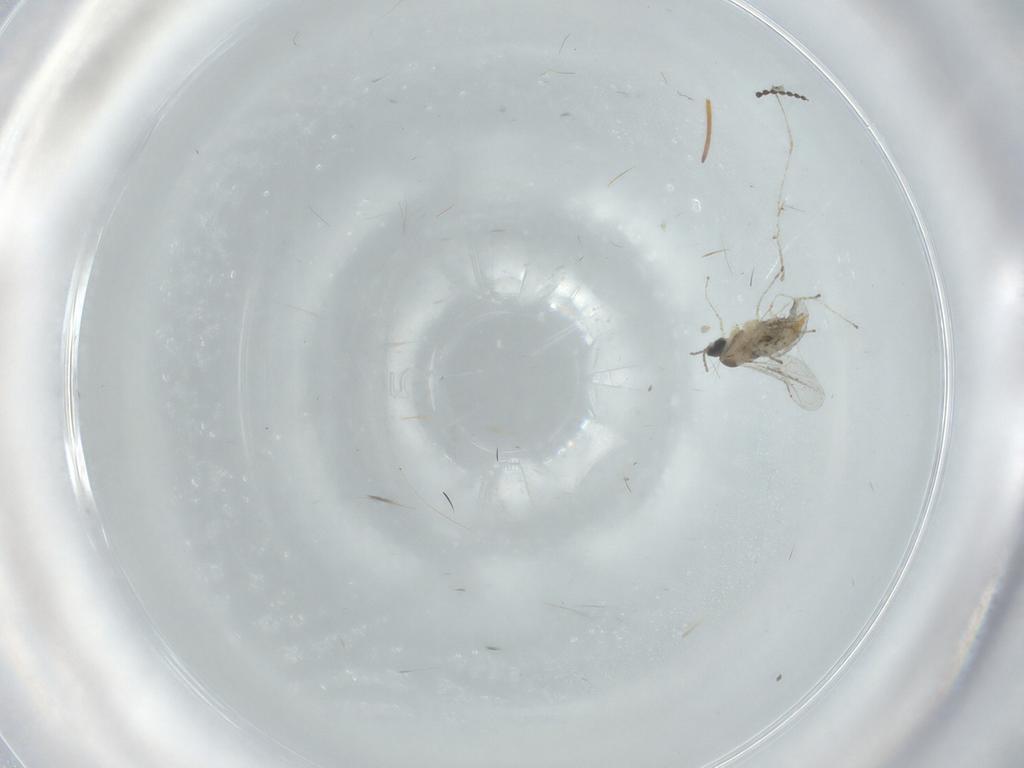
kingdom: Animalia
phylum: Arthropoda
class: Insecta
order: Diptera
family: Cecidomyiidae
